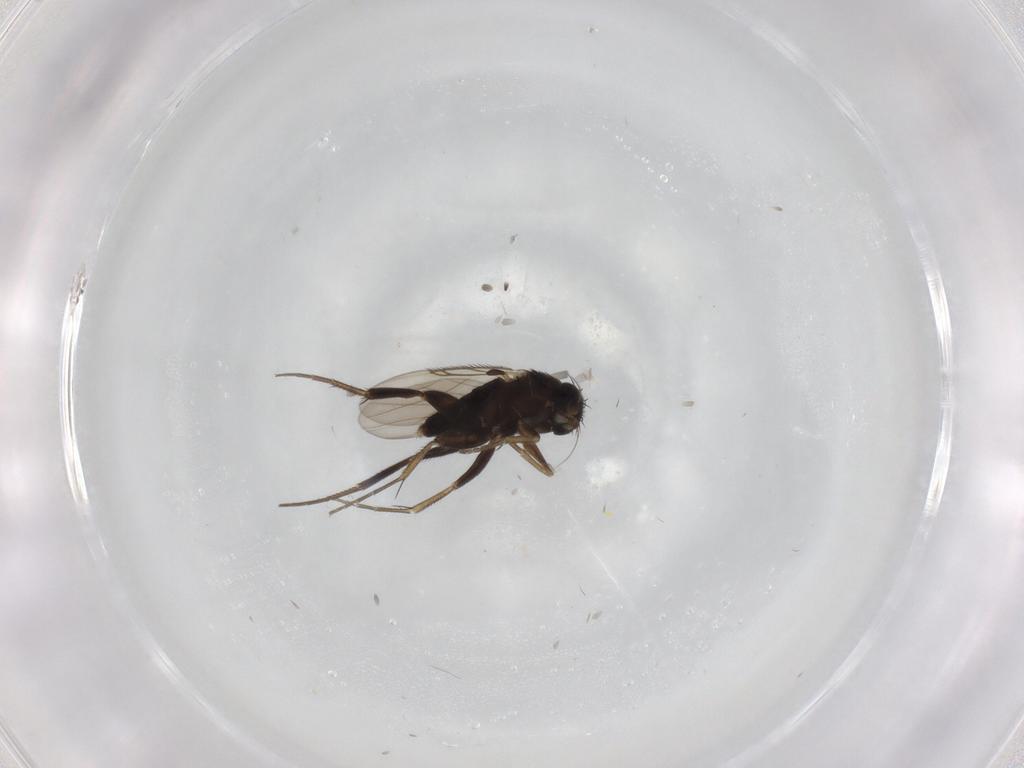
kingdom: Animalia
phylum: Arthropoda
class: Insecta
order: Diptera
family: Phoridae
